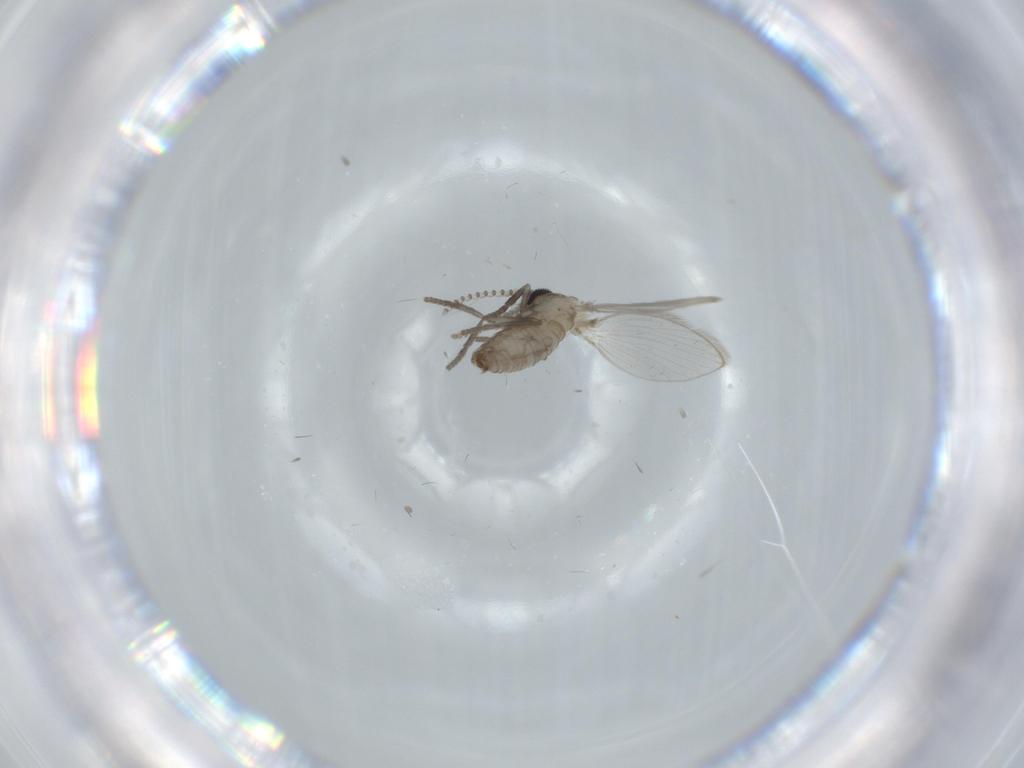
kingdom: Animalia
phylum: Arthropoda
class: Insecta
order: Diptera
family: Psychodidae
